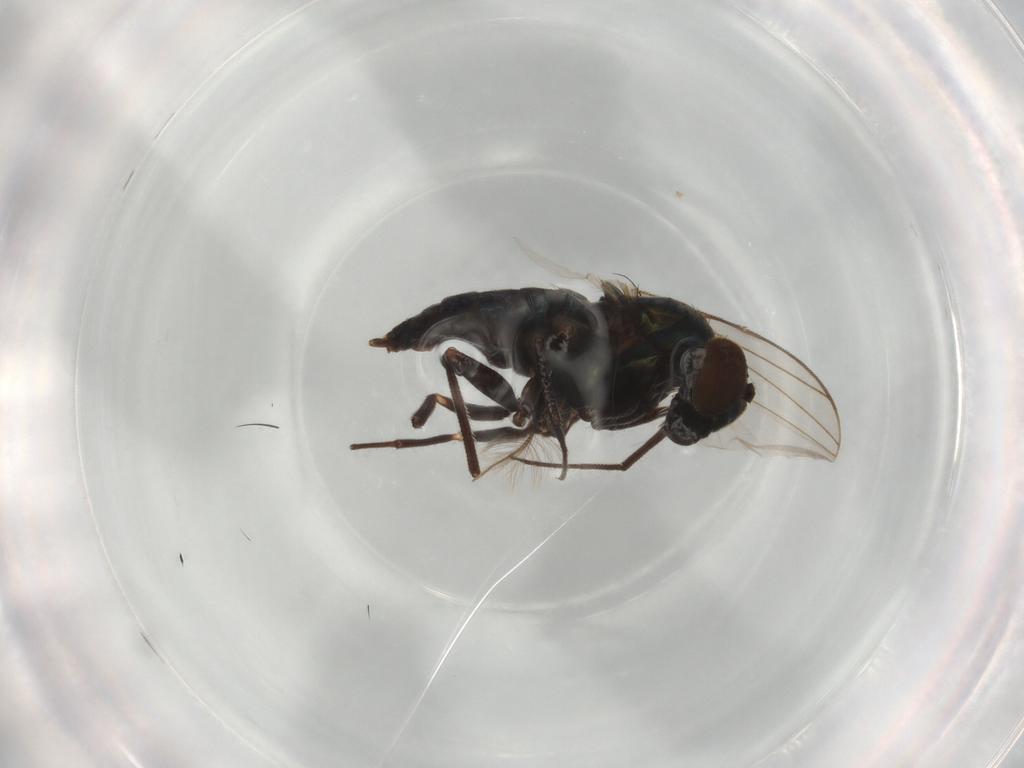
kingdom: Animalia
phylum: Arthropoda
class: Insecta
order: Diptera
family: Dolichopodidae
